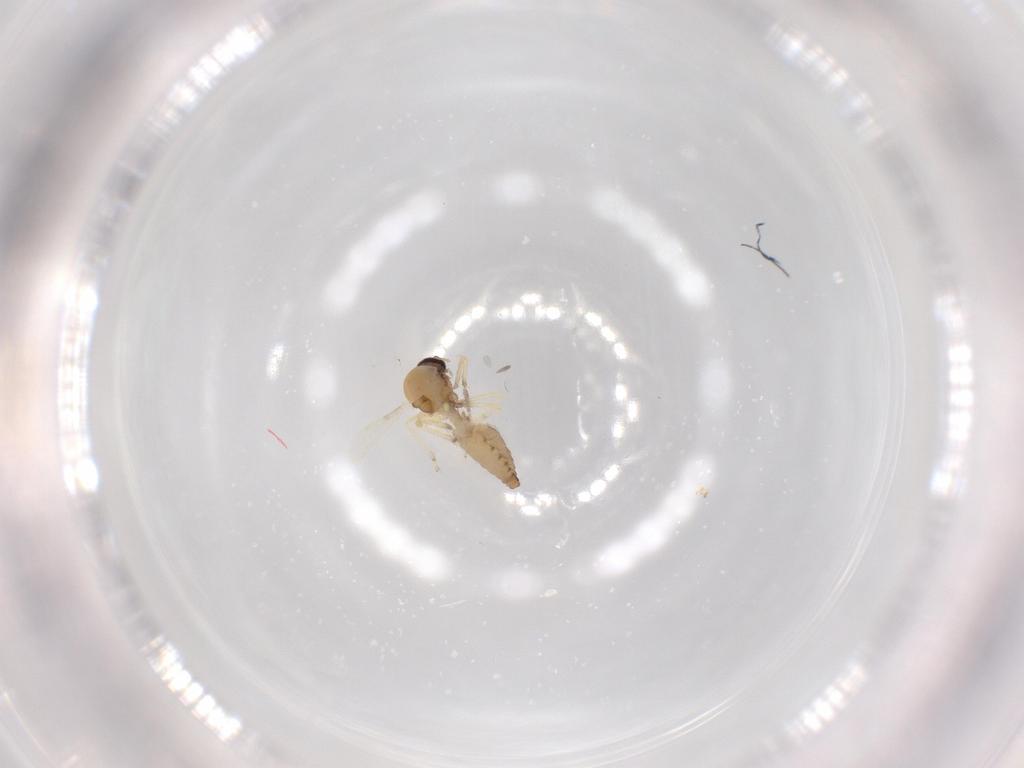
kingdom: Animalia
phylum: Arthropoda
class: Insecta
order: Diptera
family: Ceratopogonidae
